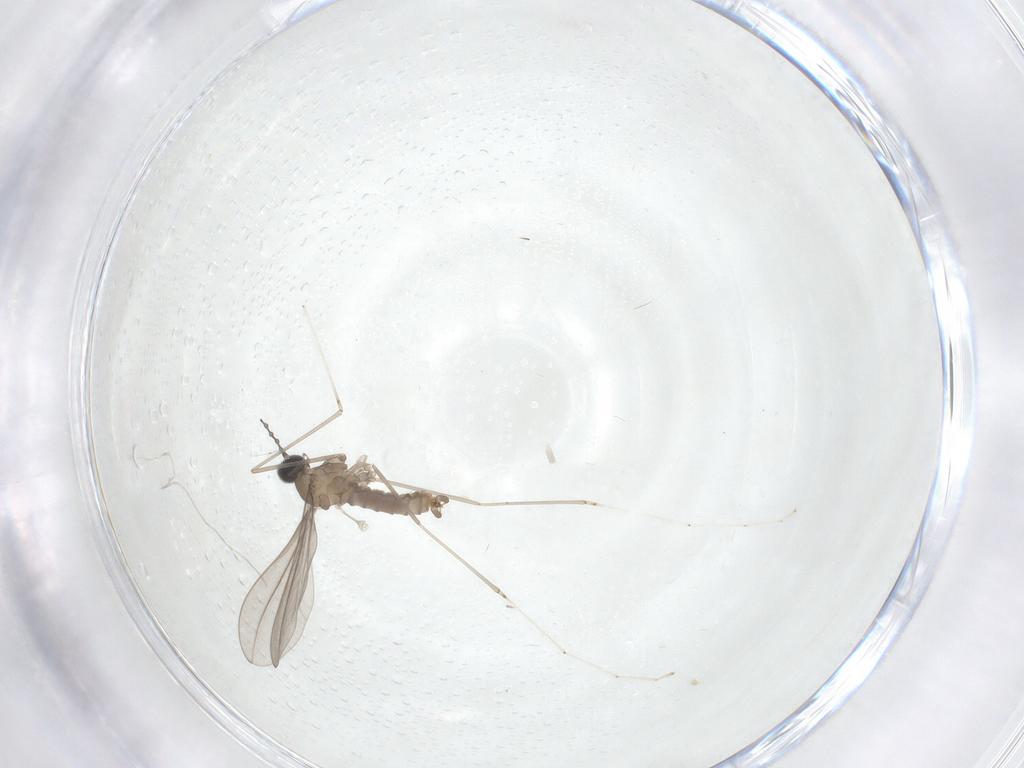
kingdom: Animalia
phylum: Arthropoda
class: Insecta
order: Diptera
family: Cecidomyiidae
